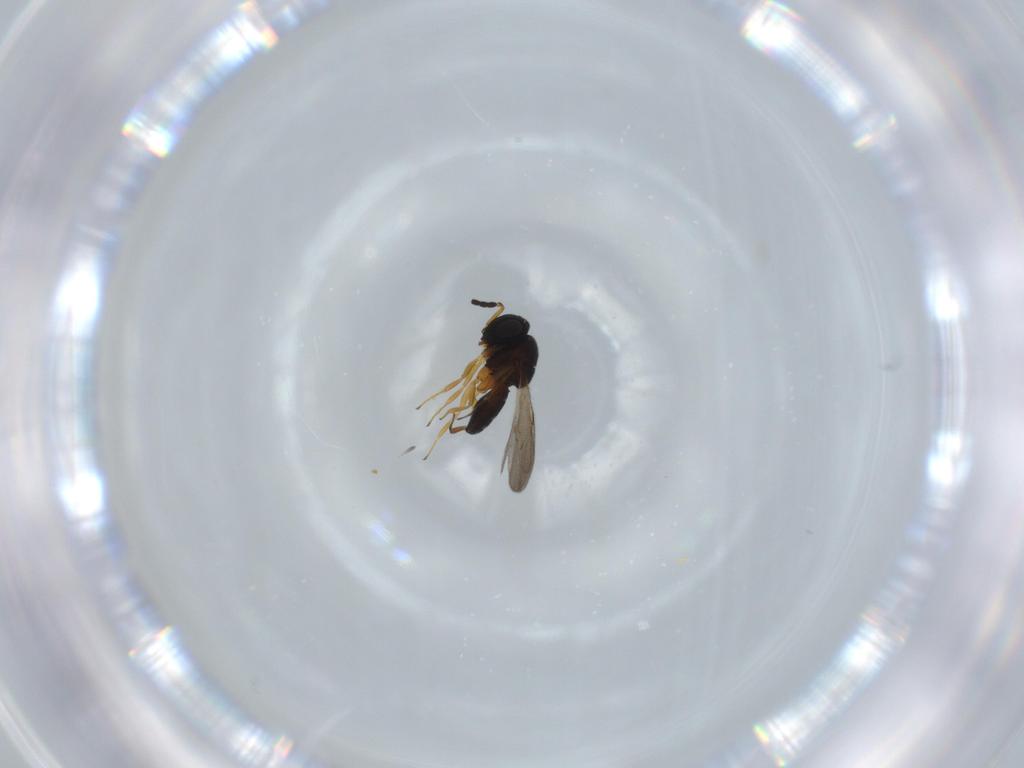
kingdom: Animalia
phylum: Arthropoda
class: Insecta
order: Coleoptera
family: Curculionidae
